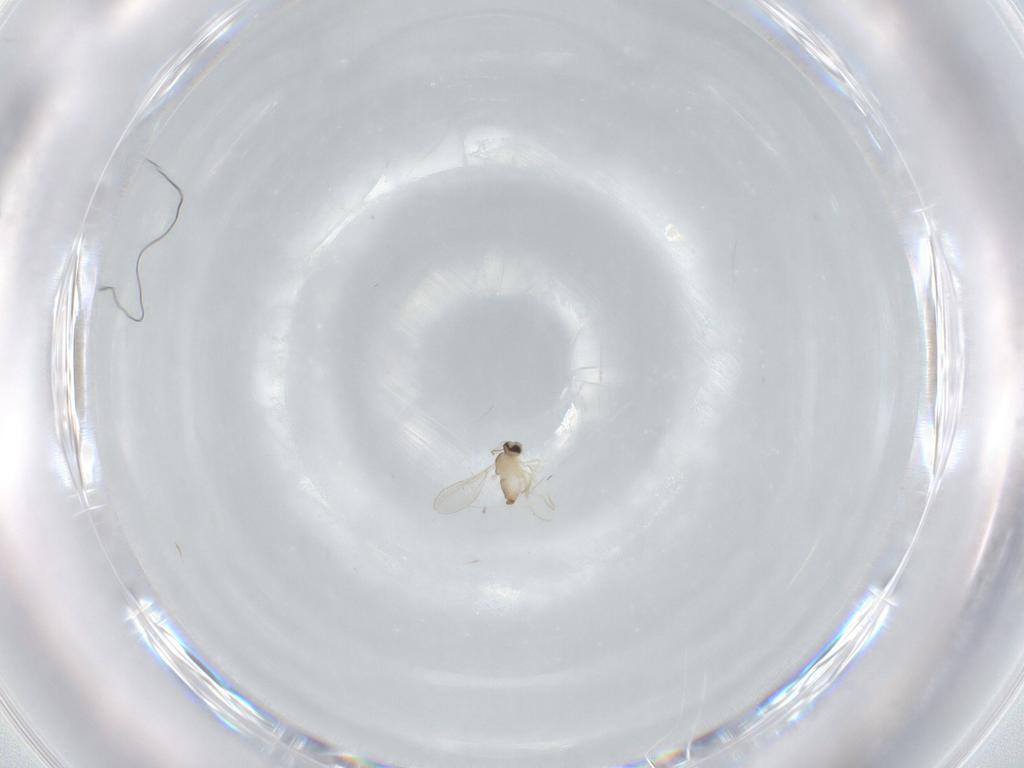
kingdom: Animalia
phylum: Arthropoda
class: Insecta
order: Diptera
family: Cecidomyiidae
